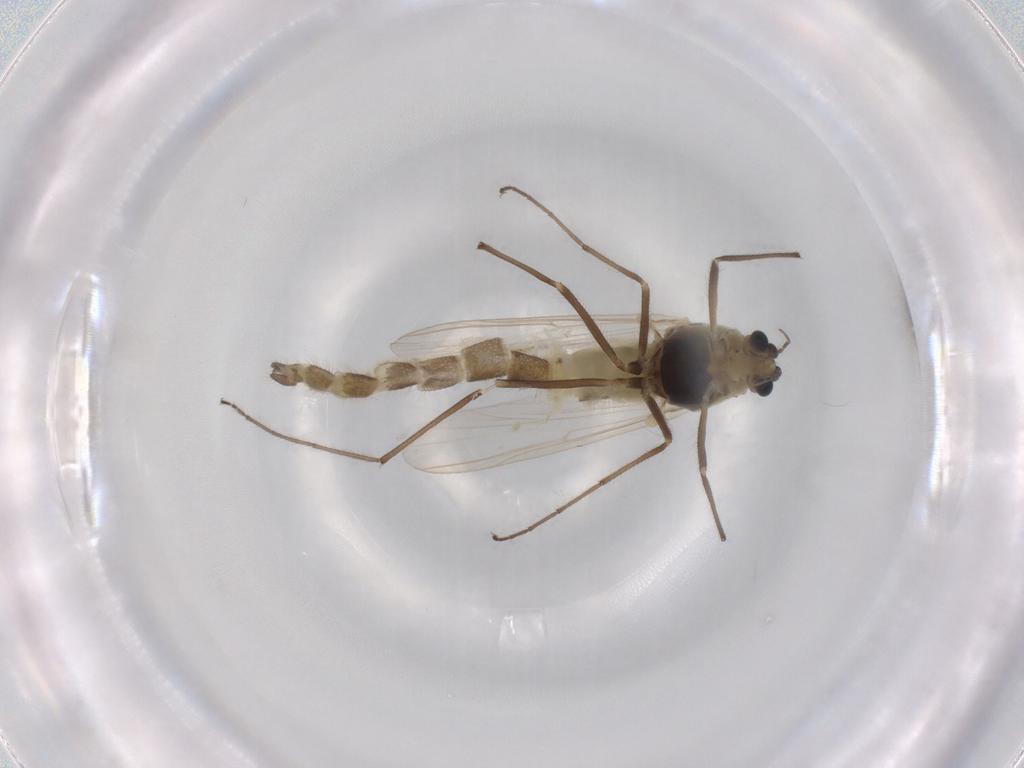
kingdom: Animalia
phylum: Arthropoda
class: Insecta
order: Diptera
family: Chironomidae
